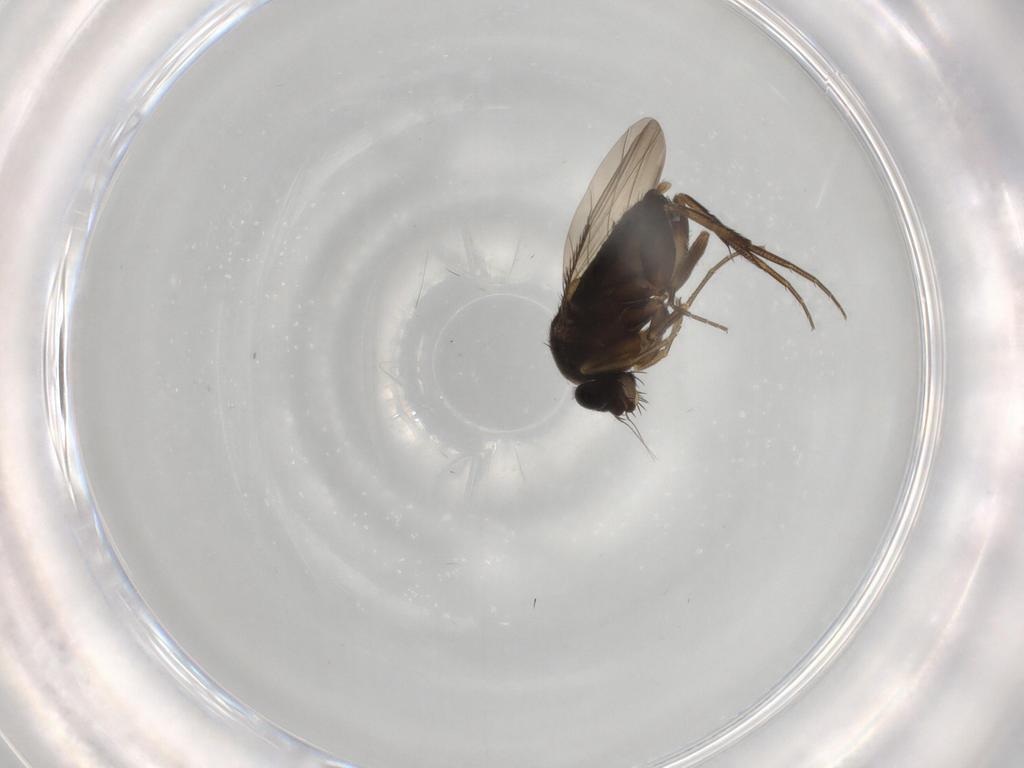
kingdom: Animalia
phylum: Arthropoda
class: Insecta
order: Diptera
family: Phoridae
